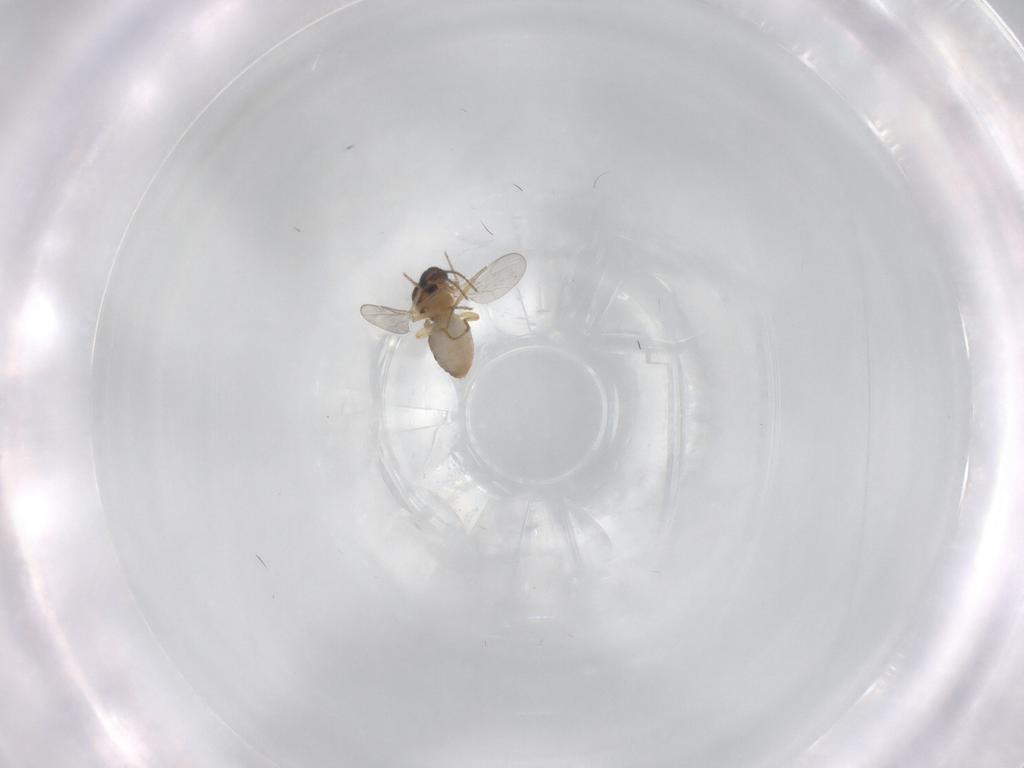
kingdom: Animalia
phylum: Arthropoda
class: Insecta
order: Diptera
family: Ceratopogonidae
